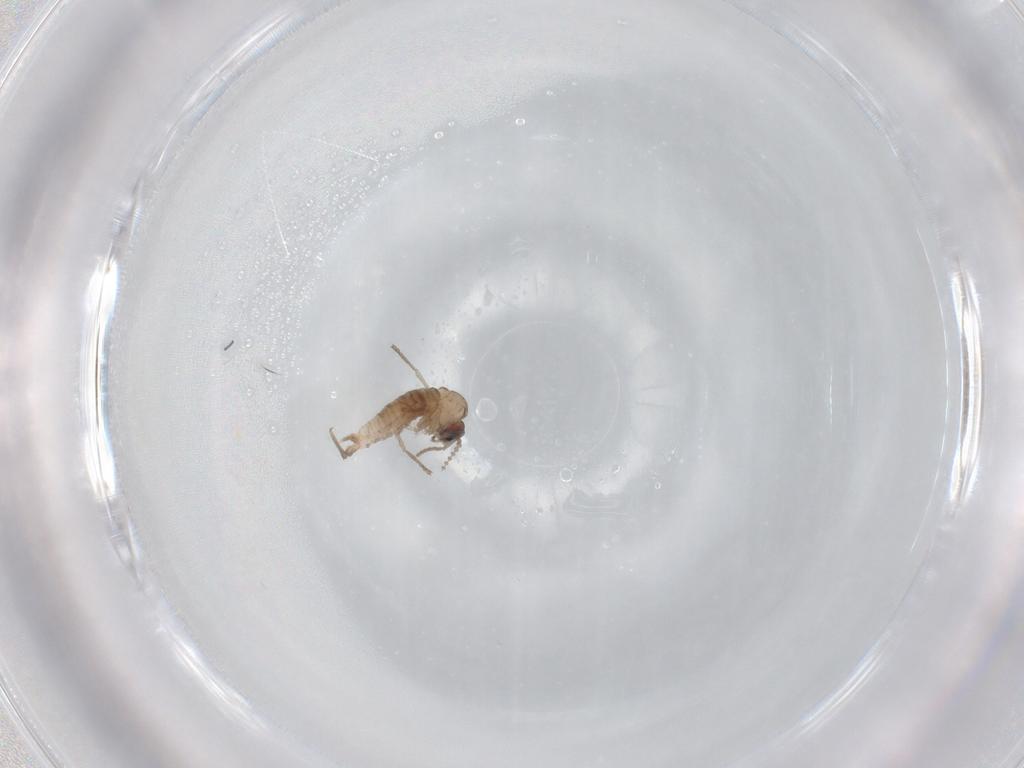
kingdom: Animalia
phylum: Arthropoda
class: Insecta
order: Diptera
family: Psychodidae
